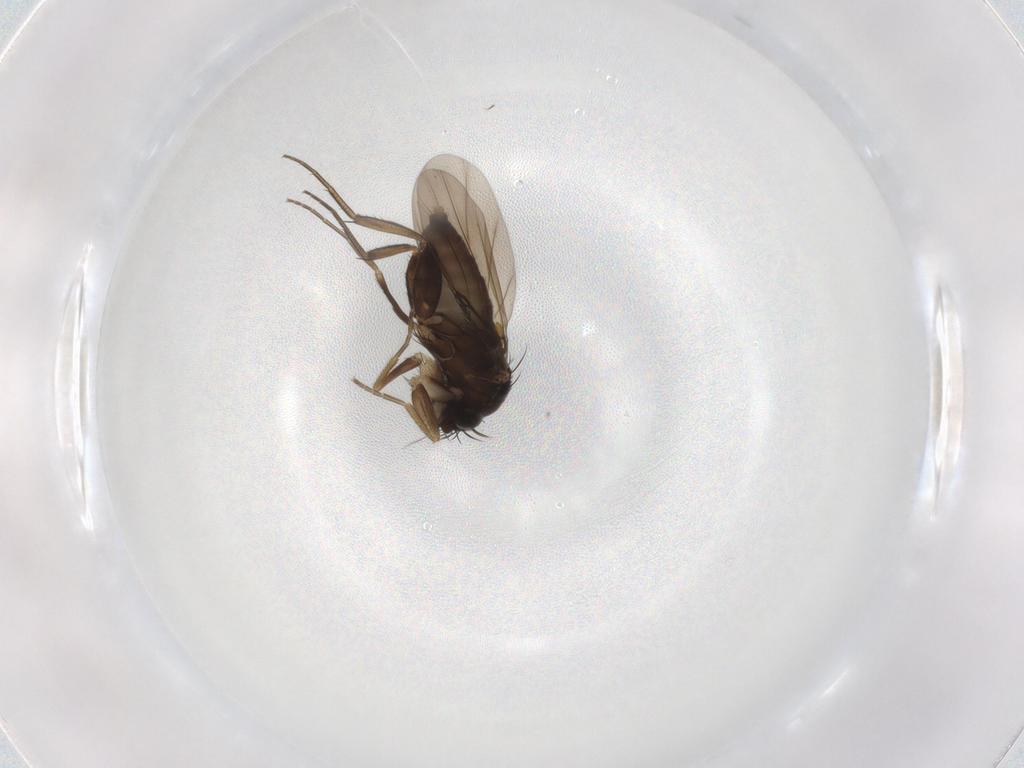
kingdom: Animalia
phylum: Arthropoda
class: Insecta
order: Diptera
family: Phoridae
